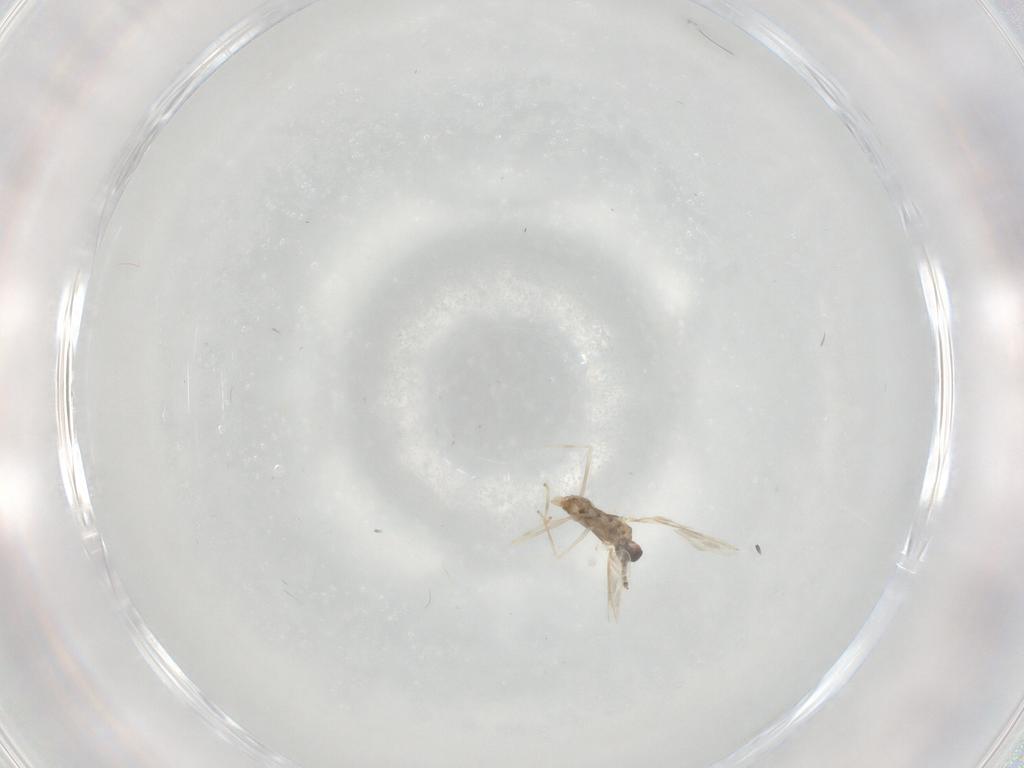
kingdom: Animalia
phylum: Arthropoda
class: Insecta
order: Diptera
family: Cecidomyiidae
